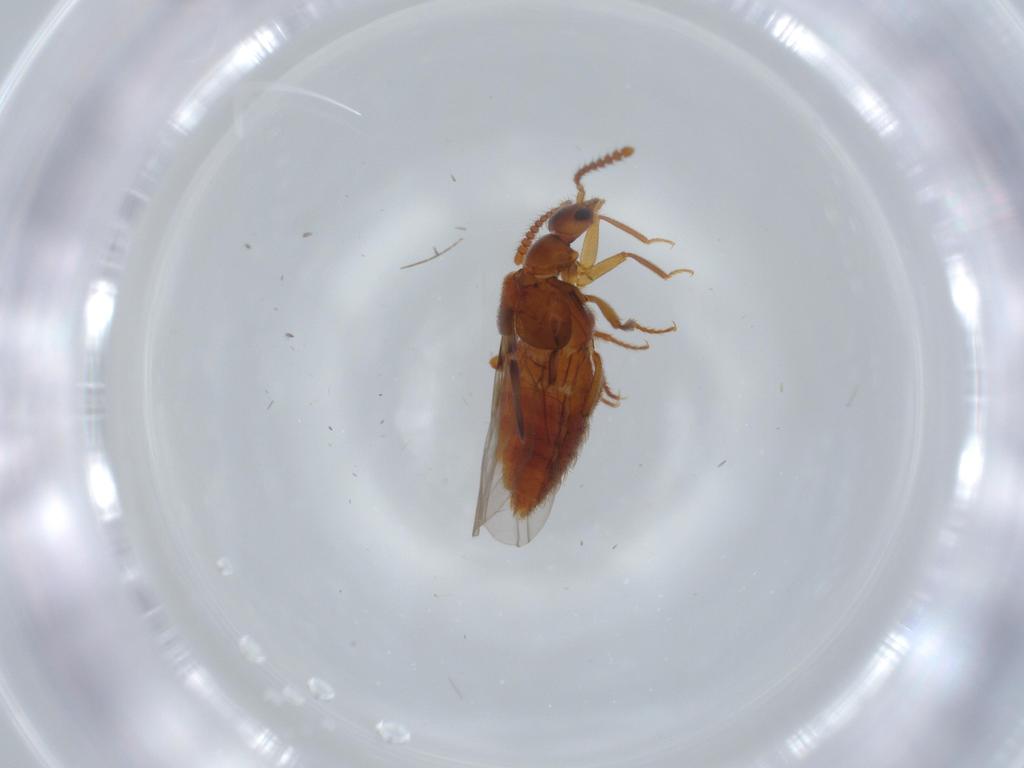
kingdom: Animalia
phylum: Arthropoda
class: Insecta
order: Coleoptera
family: Staphylinidae
